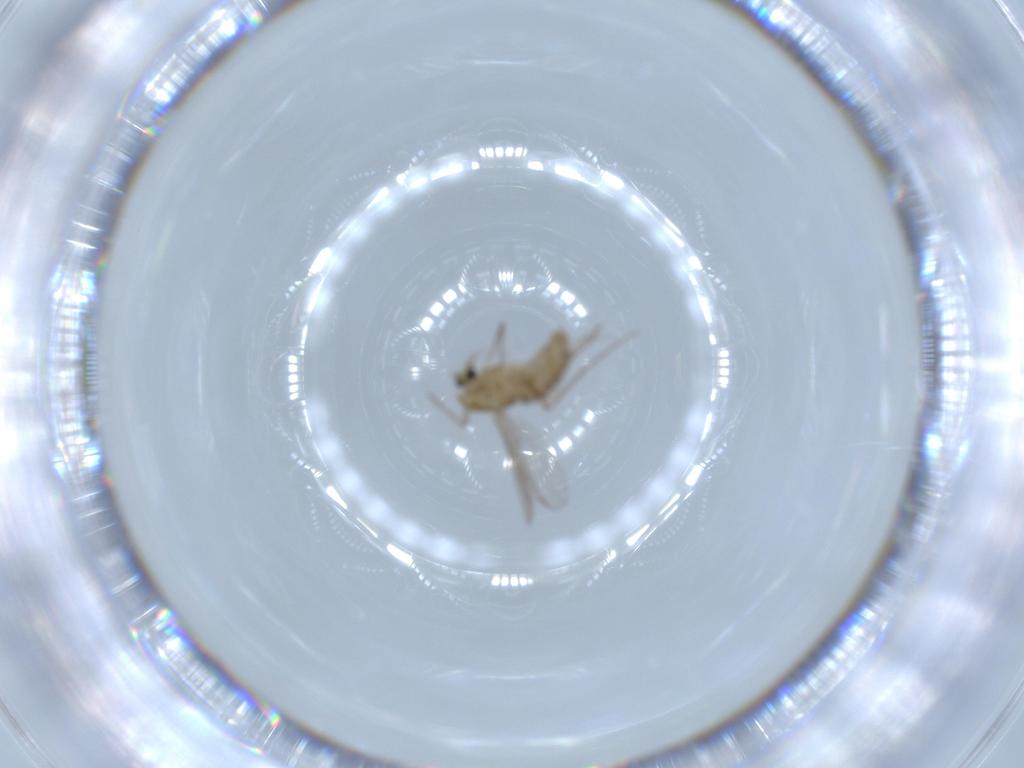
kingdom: Animalia
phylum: Arthropoda
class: Insecta
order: Diptera
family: Chironomidae
